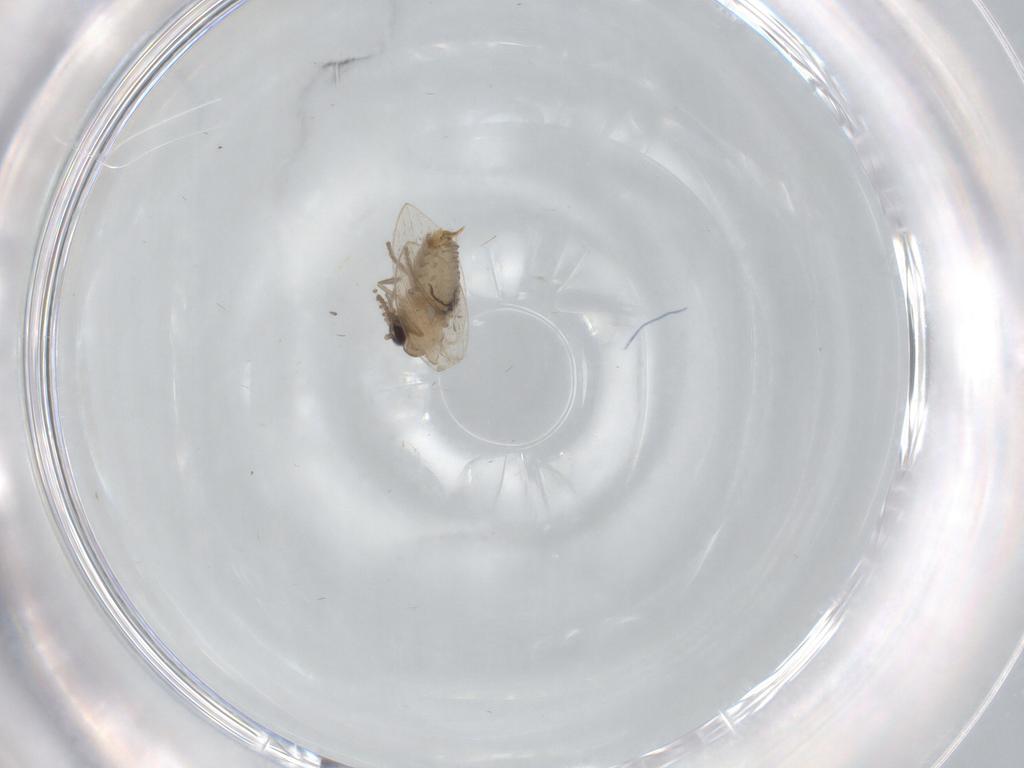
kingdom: Animalia
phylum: Arthropoda
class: Insecta
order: Diptera
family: Psychodidae
